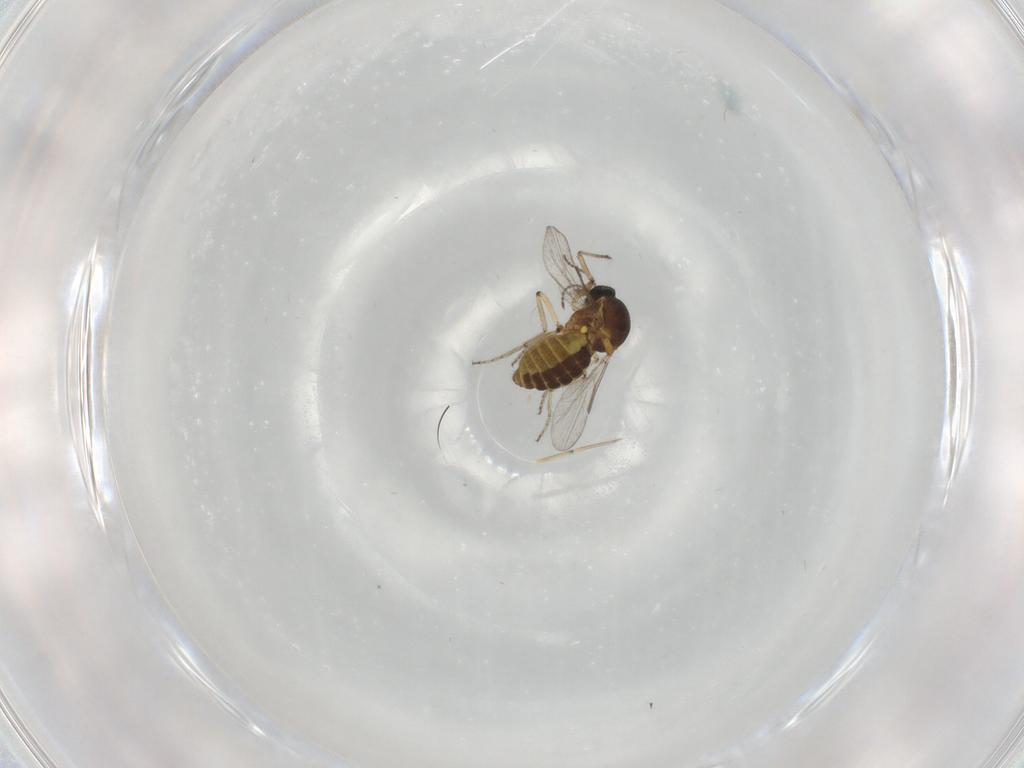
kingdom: Animalia
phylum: Arthropoda
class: Insecta
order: Diptera
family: Ceratopogonidae
